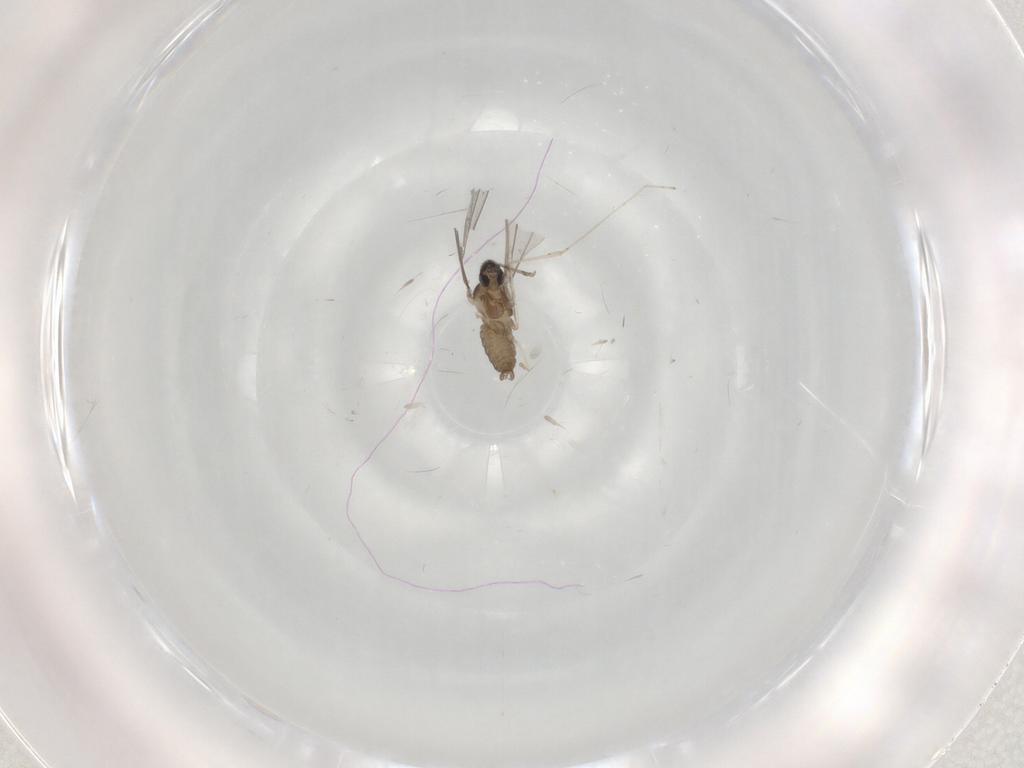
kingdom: Animalia
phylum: Arthropoda
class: Insecta
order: Diptera
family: Cecidomyiidae
